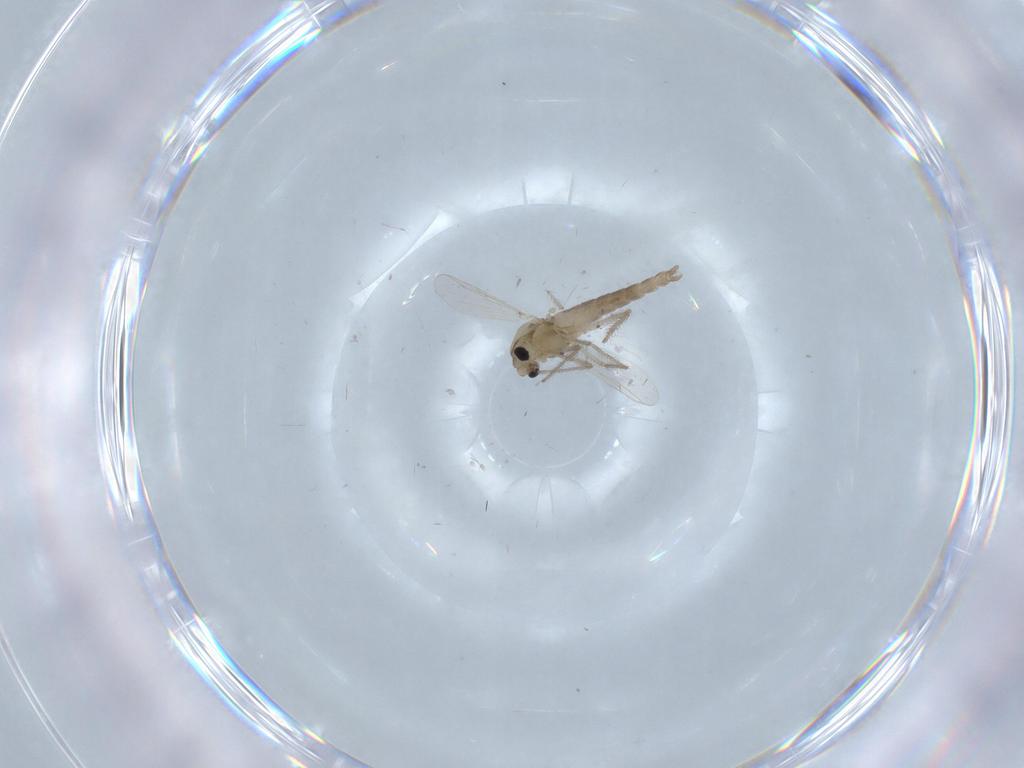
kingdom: Animalia
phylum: Arthropoda
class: Insecta
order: Diptera
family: Chironomidae
